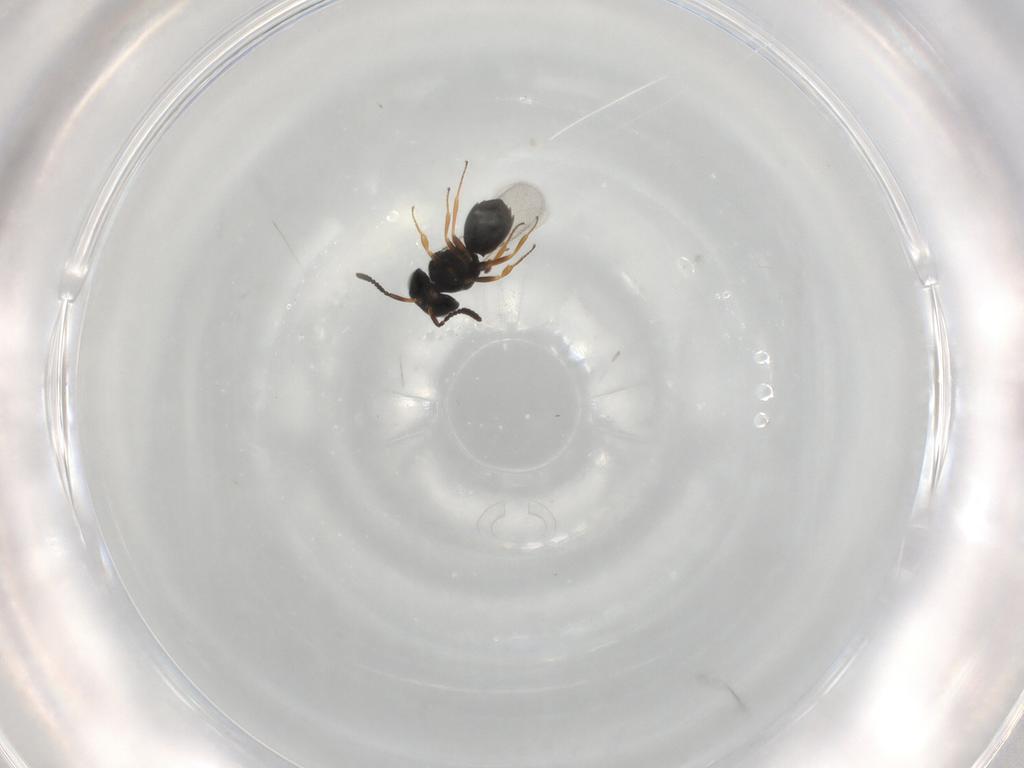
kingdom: Animalia
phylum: Arthropoda
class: Insecta
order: Hymenoptera
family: Scelionidae
